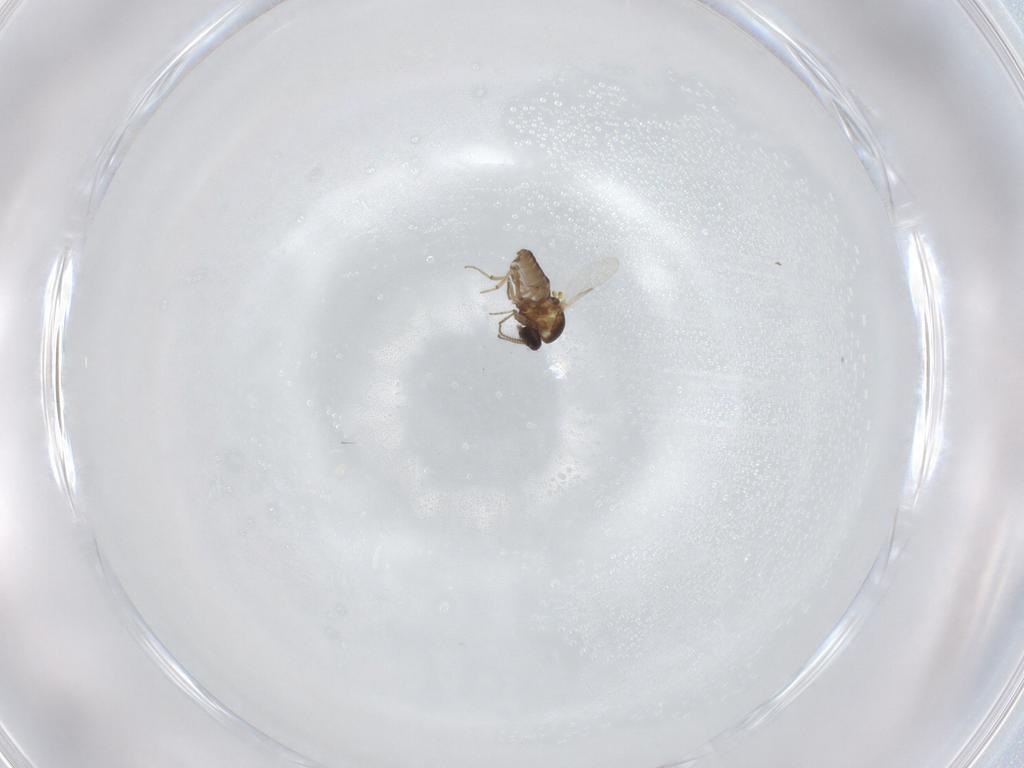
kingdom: Animalia
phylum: Arthropoda
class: Insecta
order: Diptera
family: Ceratopogonidae
